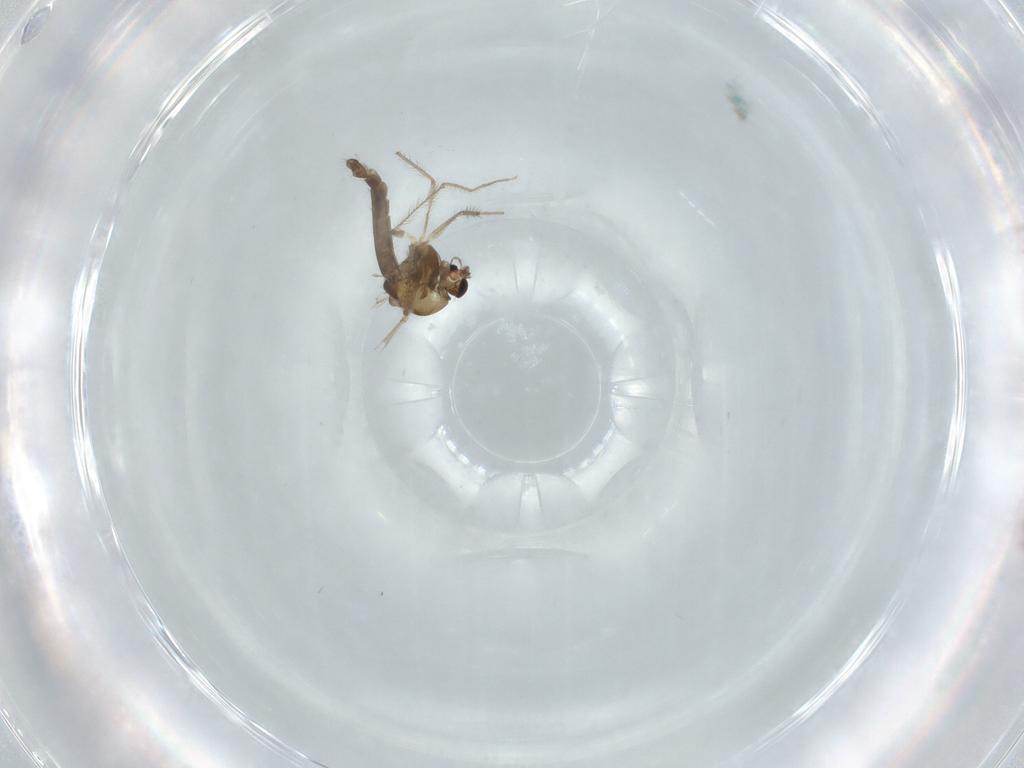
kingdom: Animalia
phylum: Arthropoda
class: Insecta
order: Diptera
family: Chironomidae
